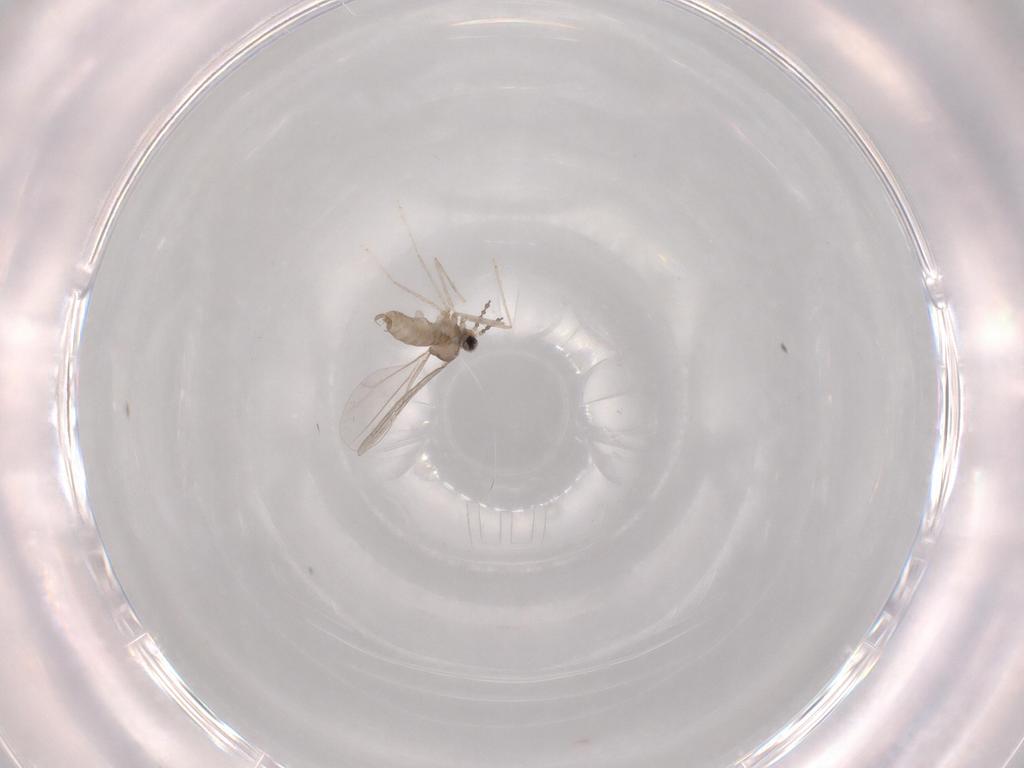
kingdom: Animalia
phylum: Arthropoda
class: Insecta
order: Diptera
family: Cecidomyiidae
